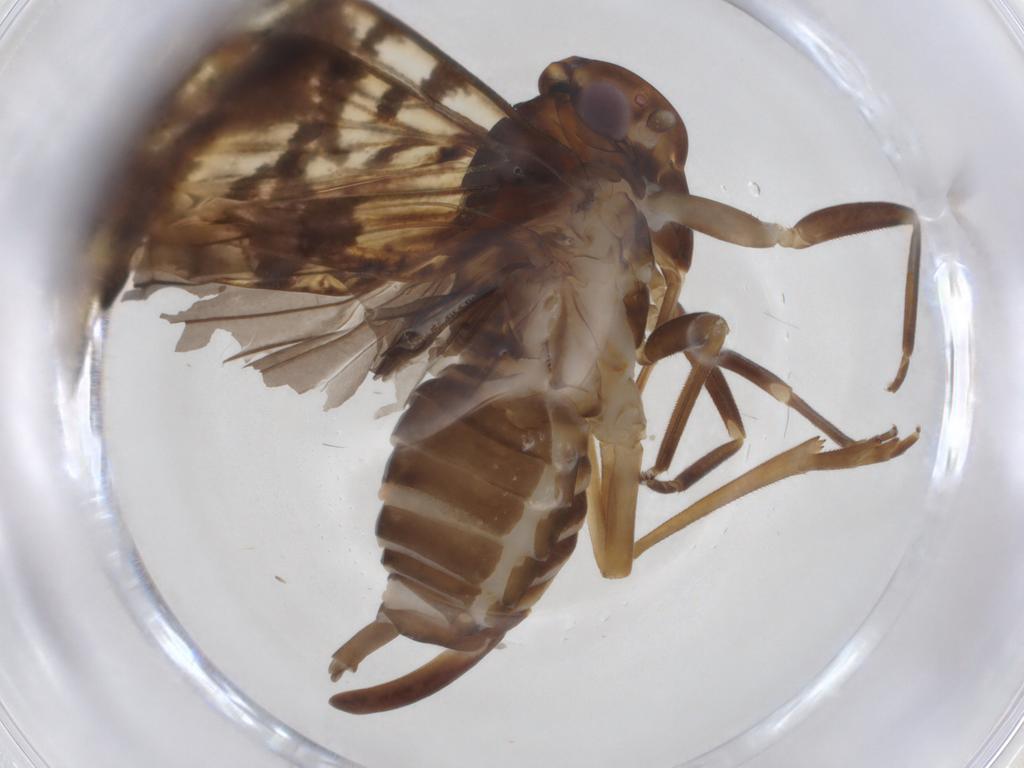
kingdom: Animalia
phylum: Arthropoda
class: Insecta
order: Hemiptera
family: Cixiidae
